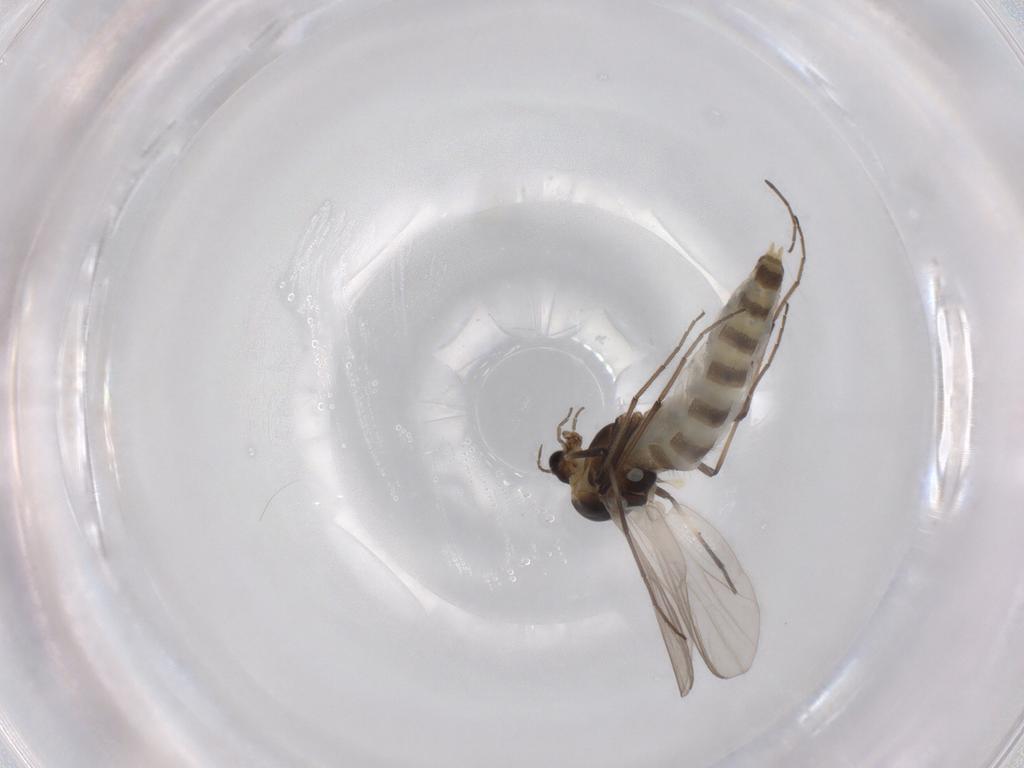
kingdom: Animalia
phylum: Arthropoda
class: Insecta
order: Diptera
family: Chironomidae
